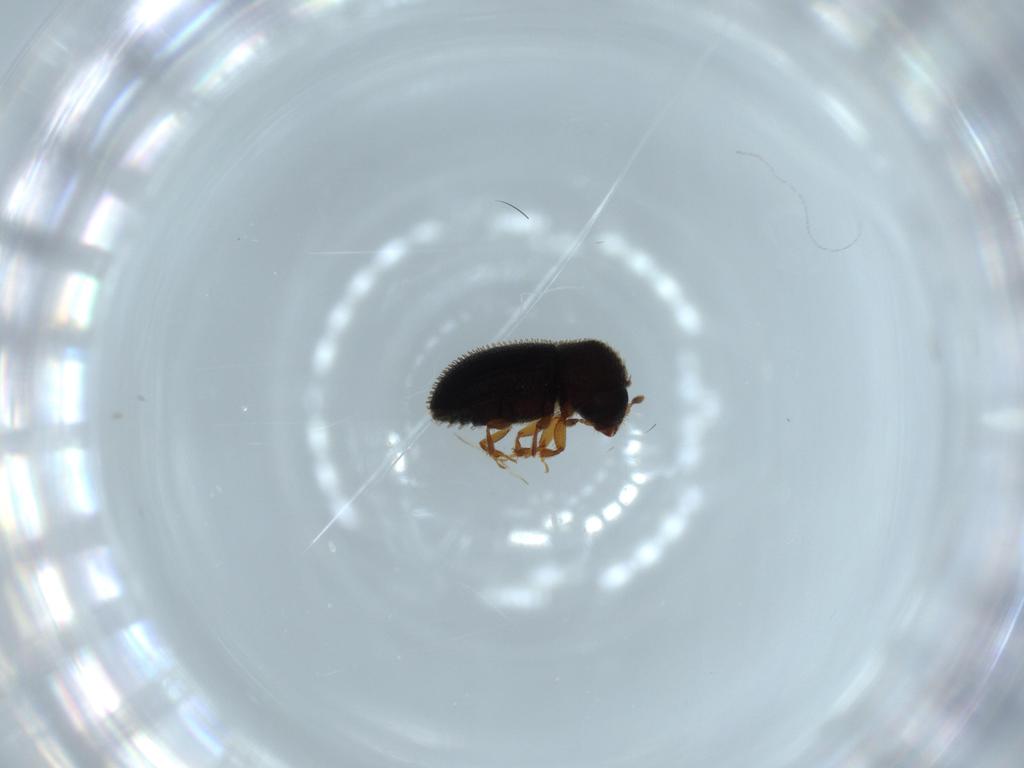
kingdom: Animalia
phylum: Arthropoda
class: Insecta
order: Coleoptera
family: Curculionidae
